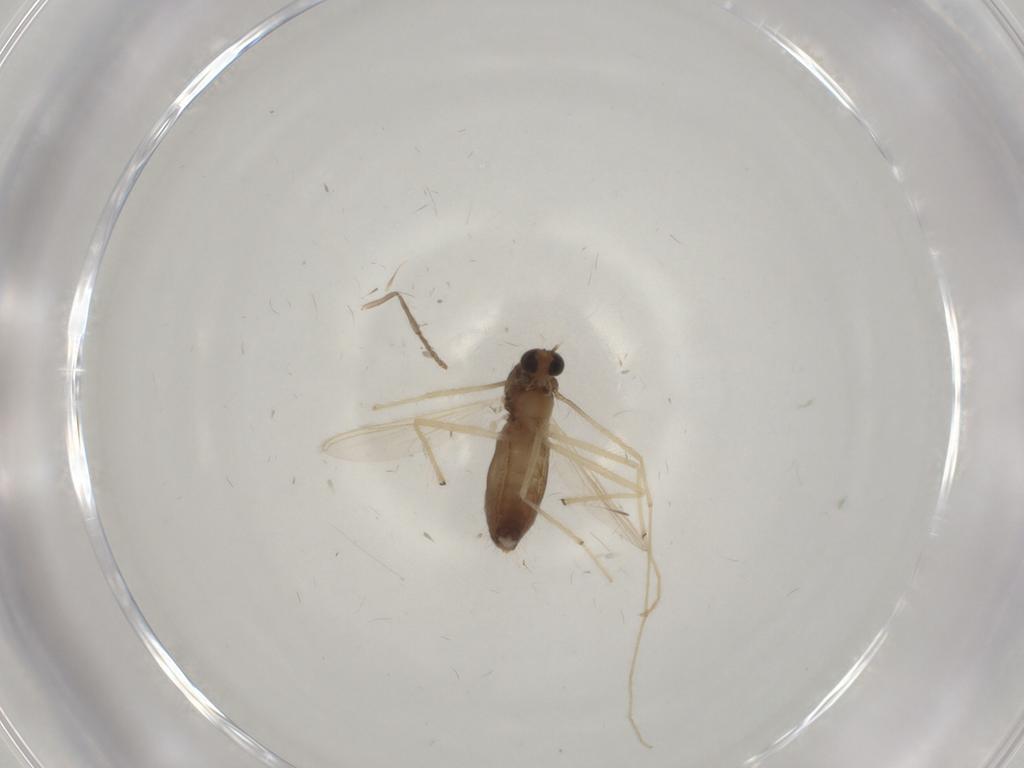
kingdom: Animalia
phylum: Arthropoda
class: Insecta
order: Diptera
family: Chironomidae
